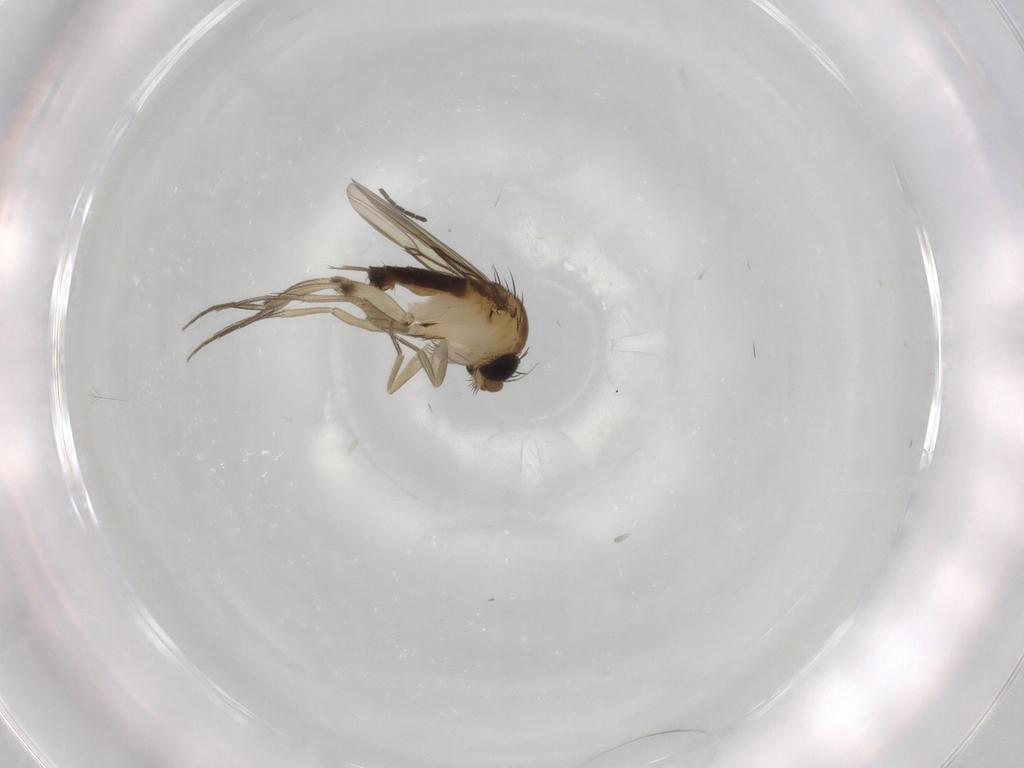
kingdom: Animalia
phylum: Arthropoda
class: Insecta
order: Diptera
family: Phoridae
